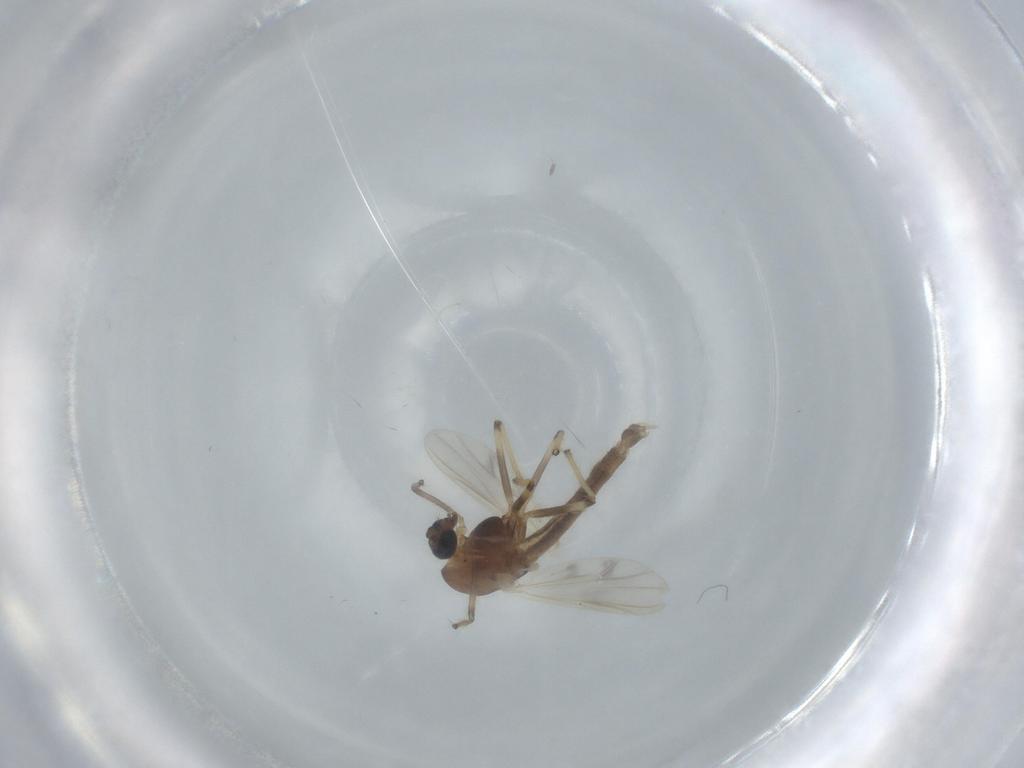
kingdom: Animalia
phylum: Arthropoda
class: Insecta
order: Diptera
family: Chironomidae
